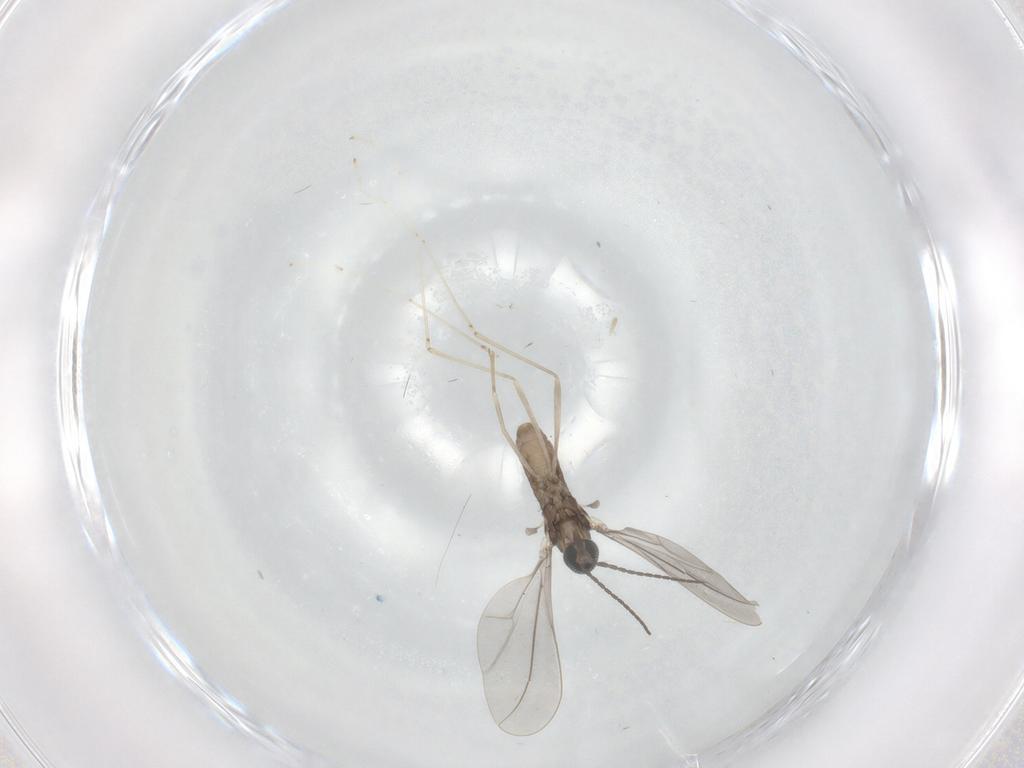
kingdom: Animalia
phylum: Arthropoda
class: Insecta
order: Diptera
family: Cecidomyiidae
